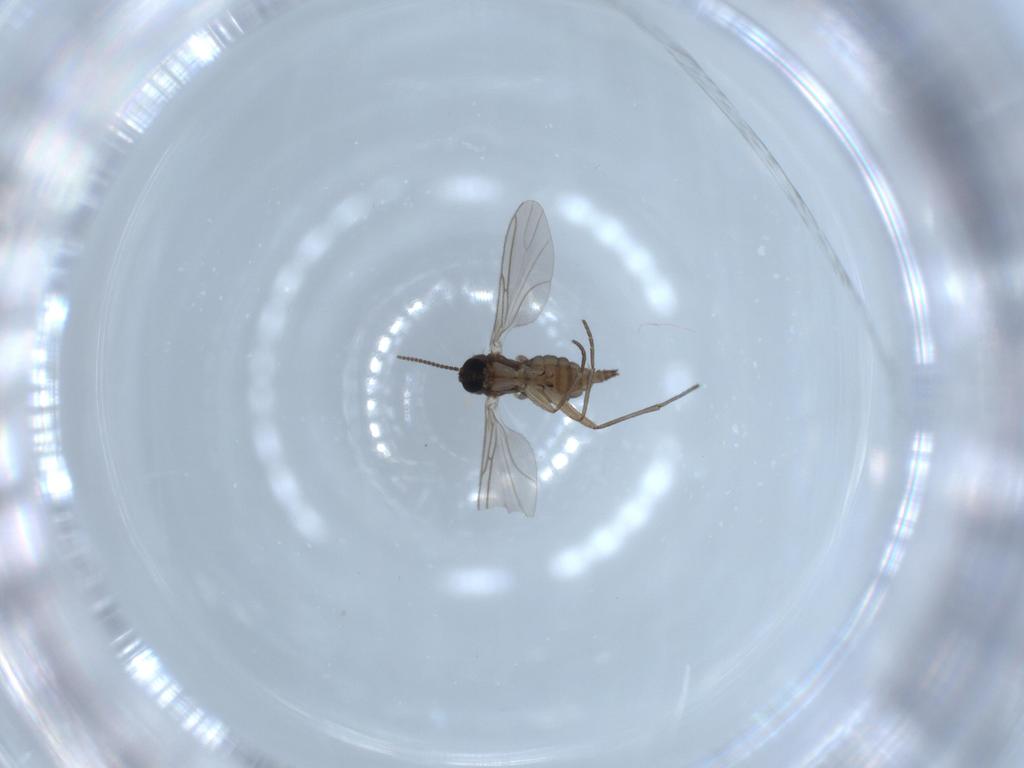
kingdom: Animalia
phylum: Arthropoda
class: Insecta
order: Diptera
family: Sciaridae
